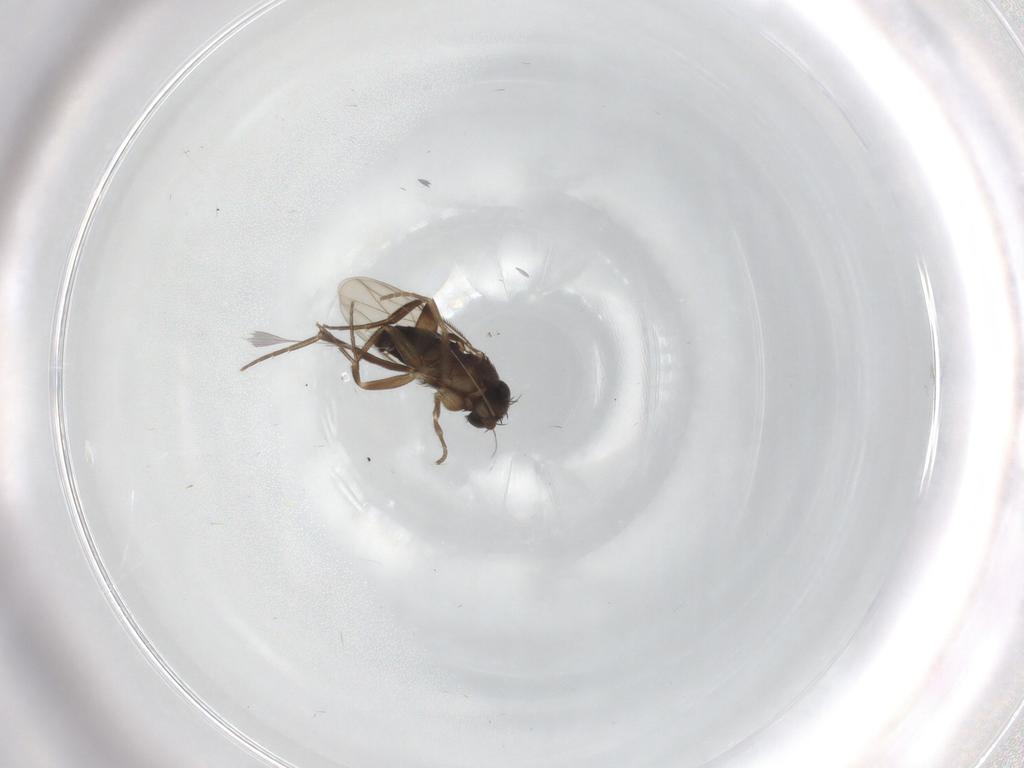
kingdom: Animalia
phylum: Arthropoda
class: Insecta
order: Diptera
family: Phoridae
